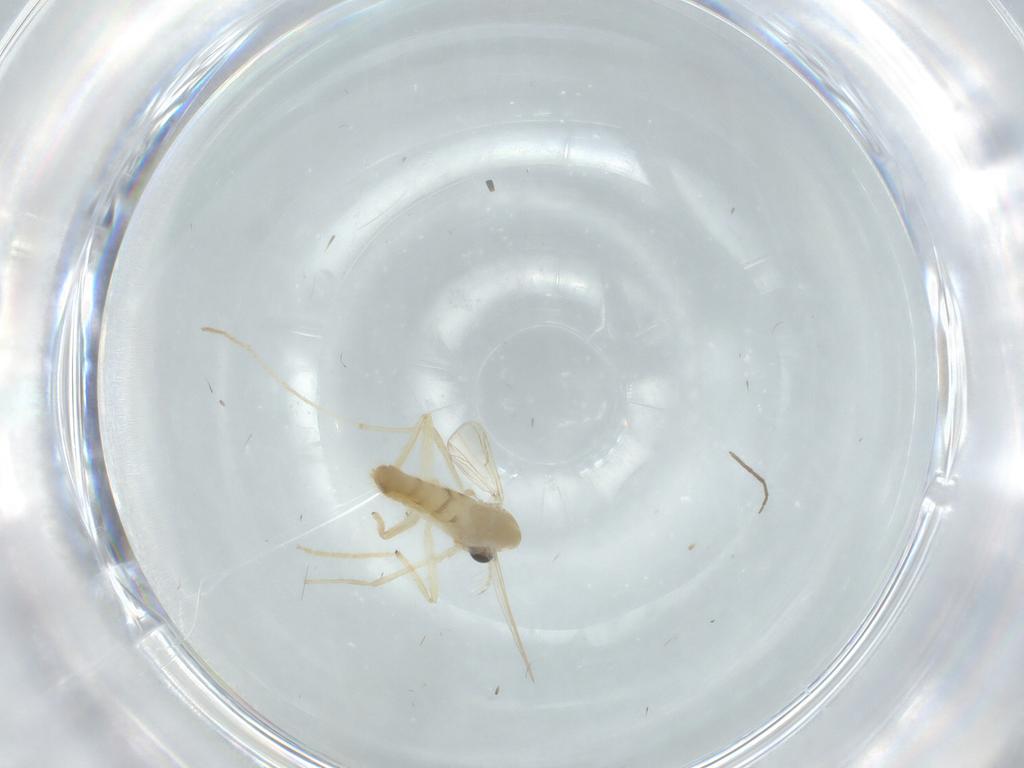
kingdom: Animalia
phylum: Arthropoda
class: Insecta
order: Diptera
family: Chironomidae
